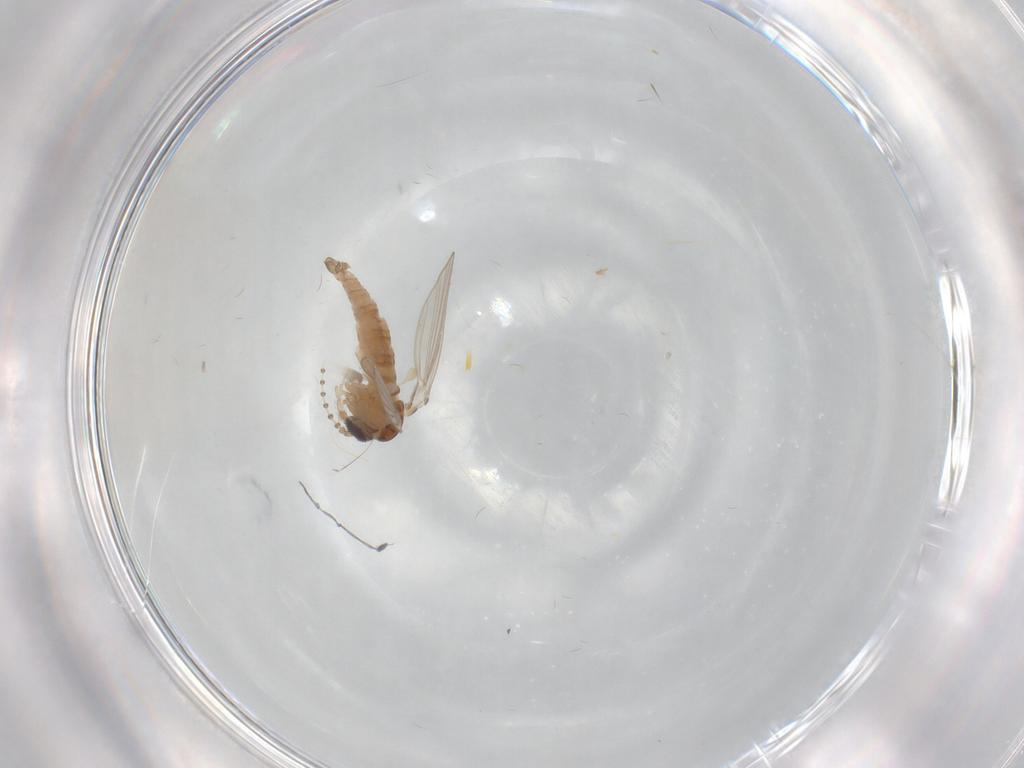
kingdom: Animalia
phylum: Arthropoda
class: Insecta
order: Diptera
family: Psychodidae
